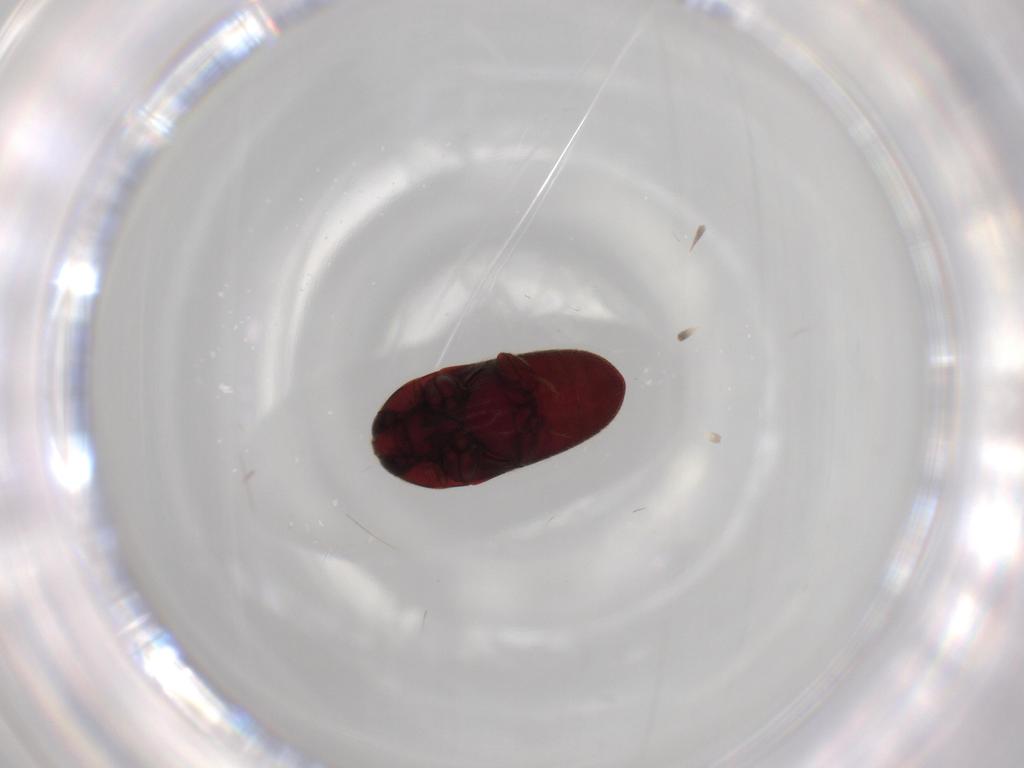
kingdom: Animalia
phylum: Arthropoda
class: Insecta
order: Coleoptera
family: Throscidae
